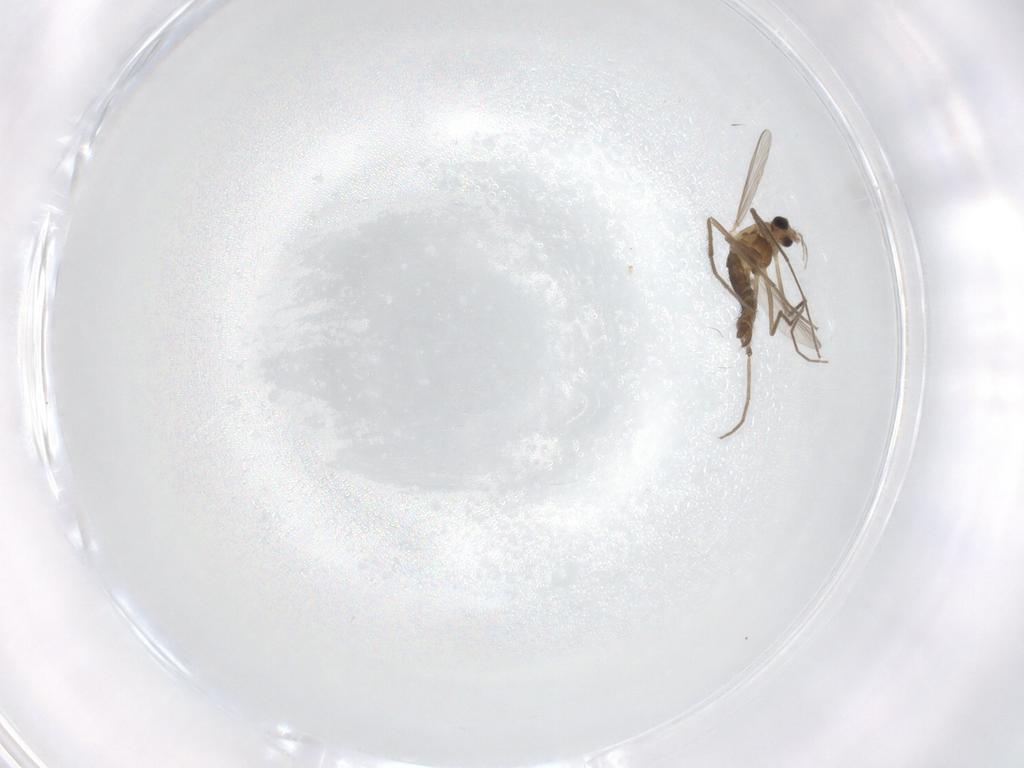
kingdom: Animalia
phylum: Arthropoda
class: Insecta
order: Diptera
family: Chironomidae
